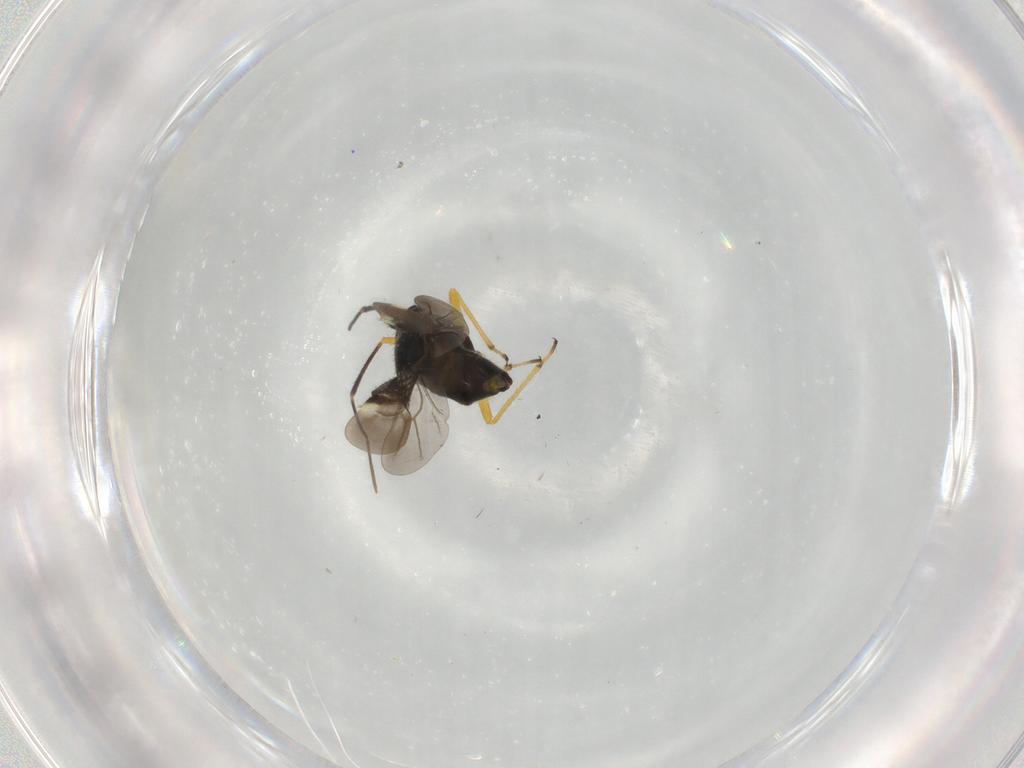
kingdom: Animalia
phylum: Arthropoda
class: Insecta
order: Hemiptera
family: Miridae
